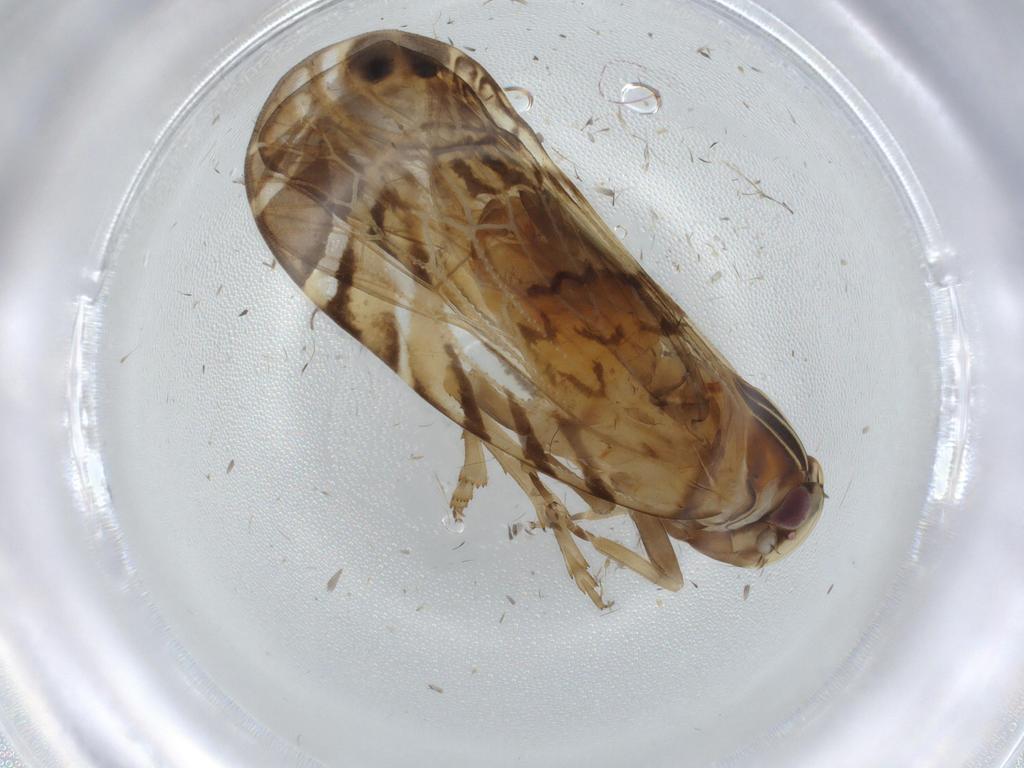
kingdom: Animalia
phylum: Arthropoda
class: Insecta
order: Hemiptera
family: Cixiidae
